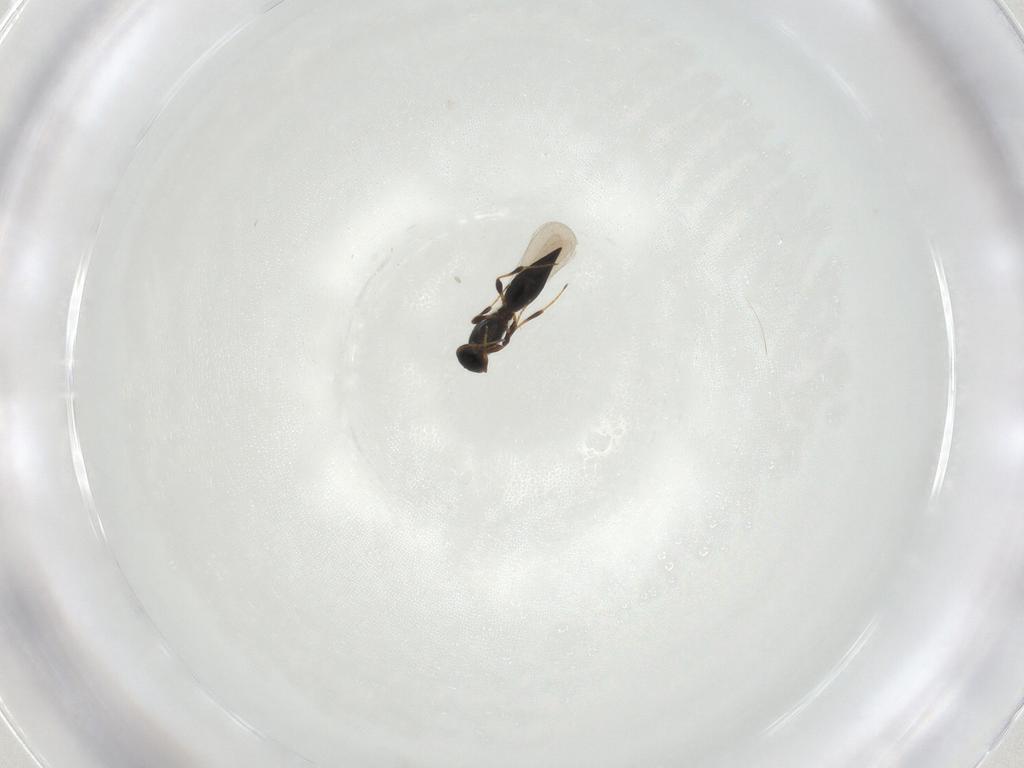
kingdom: Animalia
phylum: Arthropoda
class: Insecta
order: Hymenoptera
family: Platygastridae
